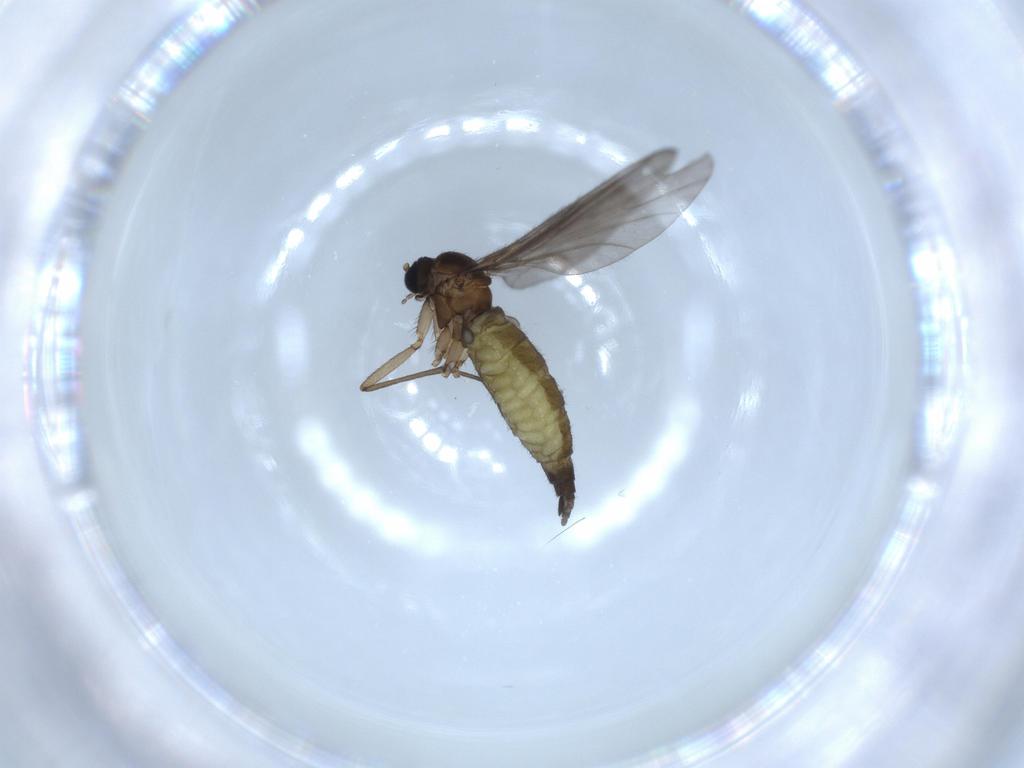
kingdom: Animalia
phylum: Arthropoda
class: Insecta
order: Diptera
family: Sciaridae
